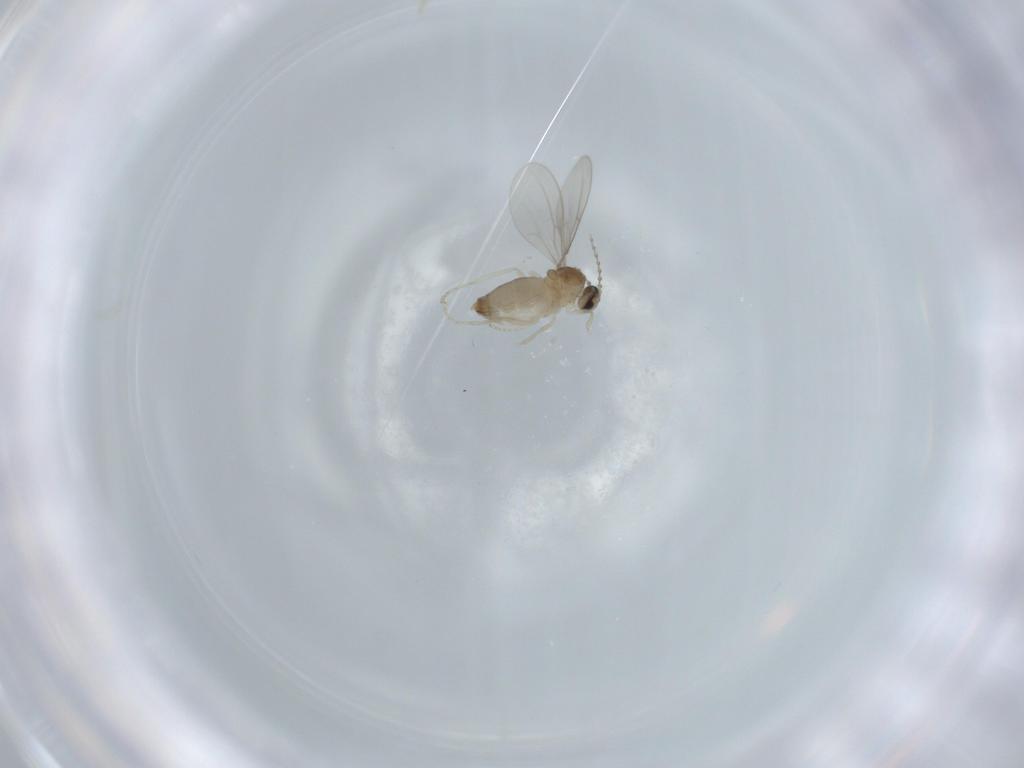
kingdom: Animalia
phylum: Arthropoda
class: Insecta
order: Diptera
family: Cecidomyiidae
